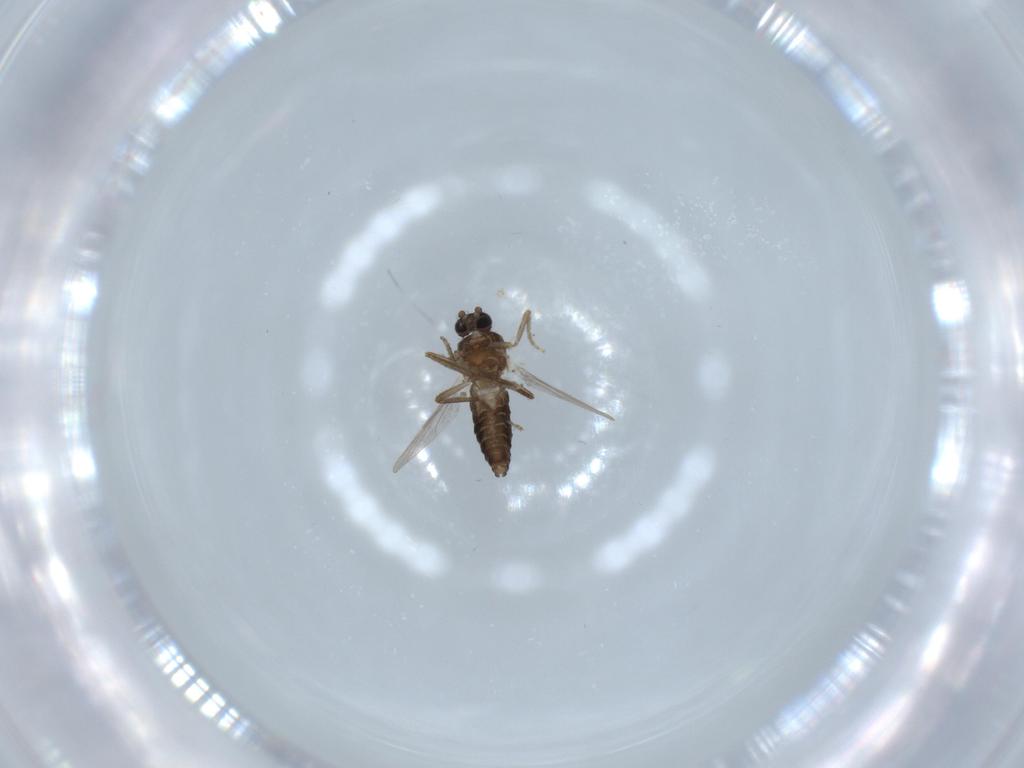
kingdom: Animalia
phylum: Arthropoda
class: Insecta
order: Diptera
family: Ceratopogonidae
